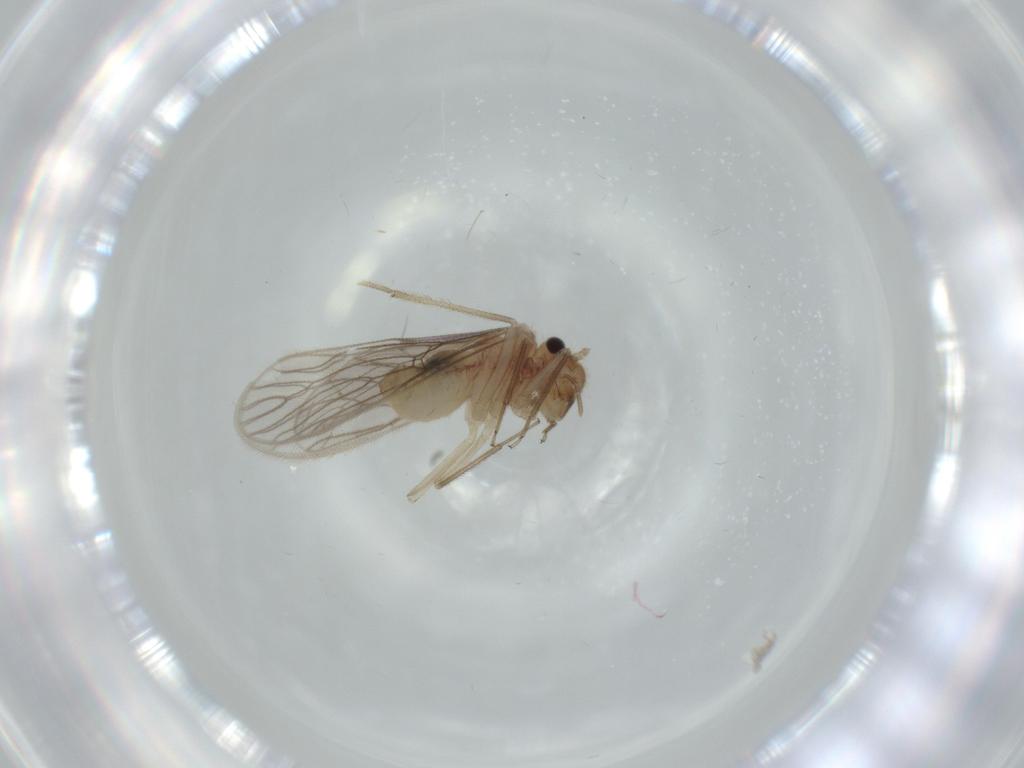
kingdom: Animalia
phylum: Arthropoda
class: Insecta
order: Psocodea
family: Cladiopsocidae
